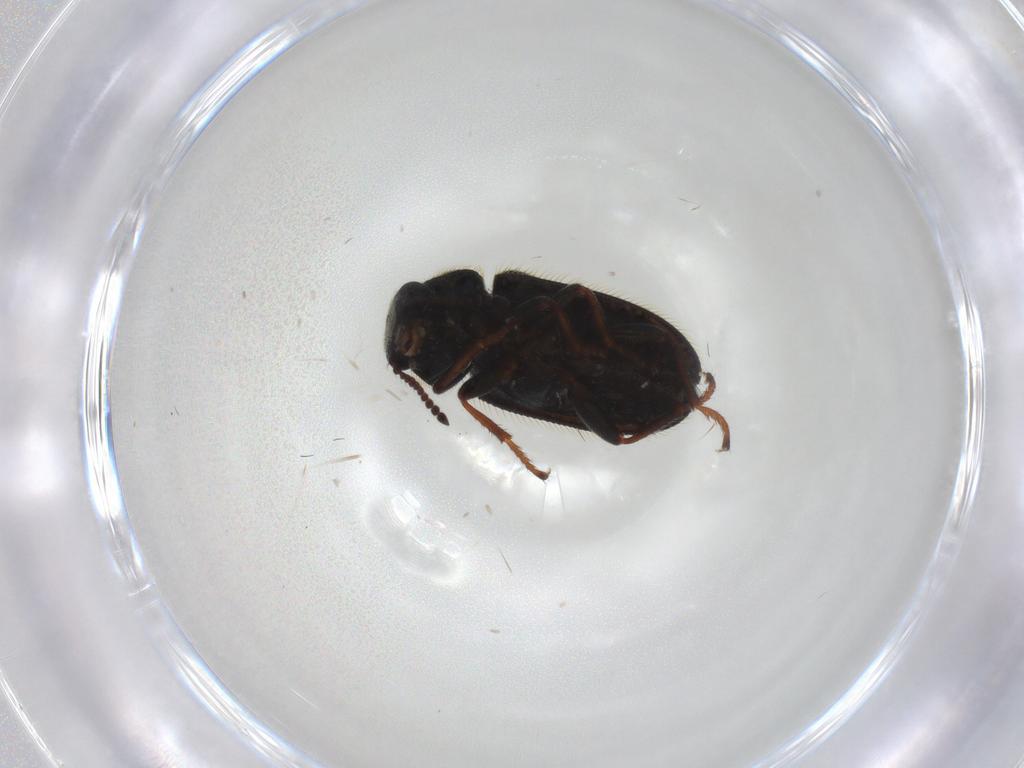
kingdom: Animalia
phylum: Arthropoda
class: Insecta
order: Coleoptera
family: Melyridae
